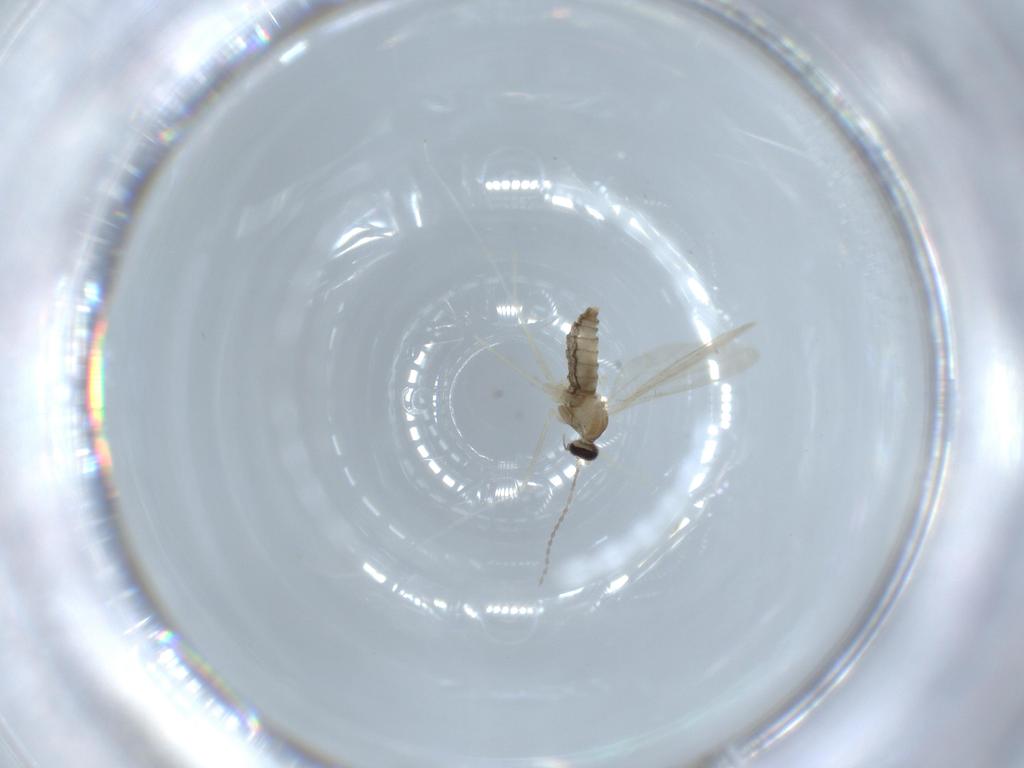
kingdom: Animalia
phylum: Arthropoda
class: Insecta
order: Diptera
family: Cecidomyiidae
